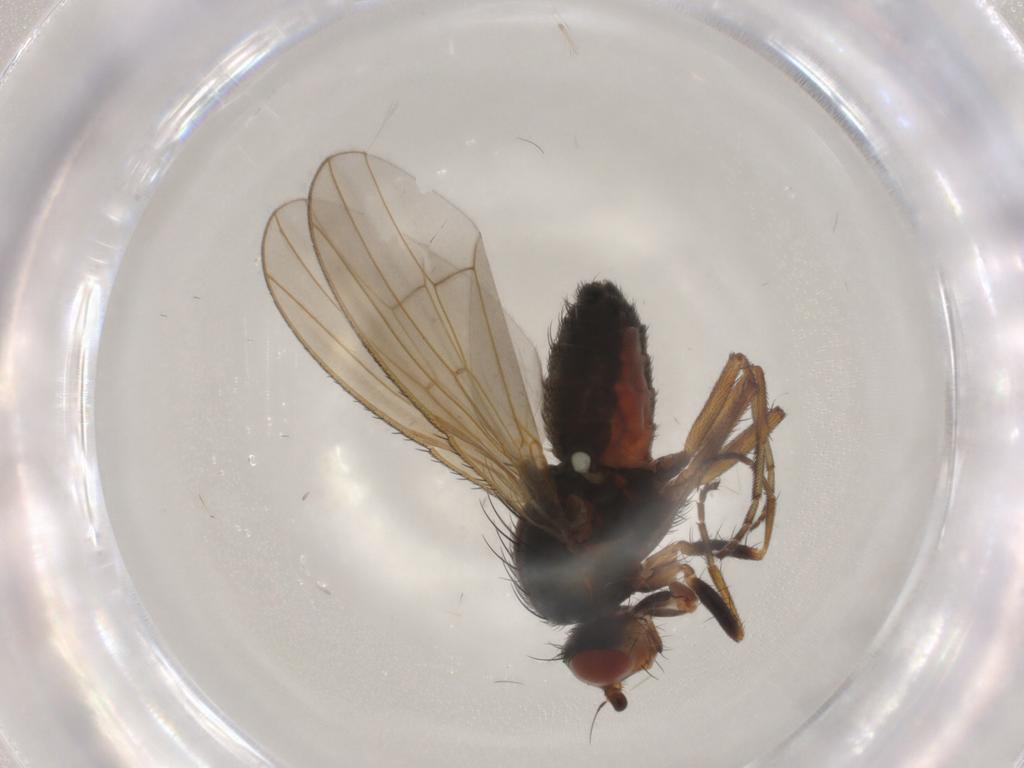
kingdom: Animalia
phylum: Arthropoda
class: Insecta
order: Diptera
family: Heleomyzidae
